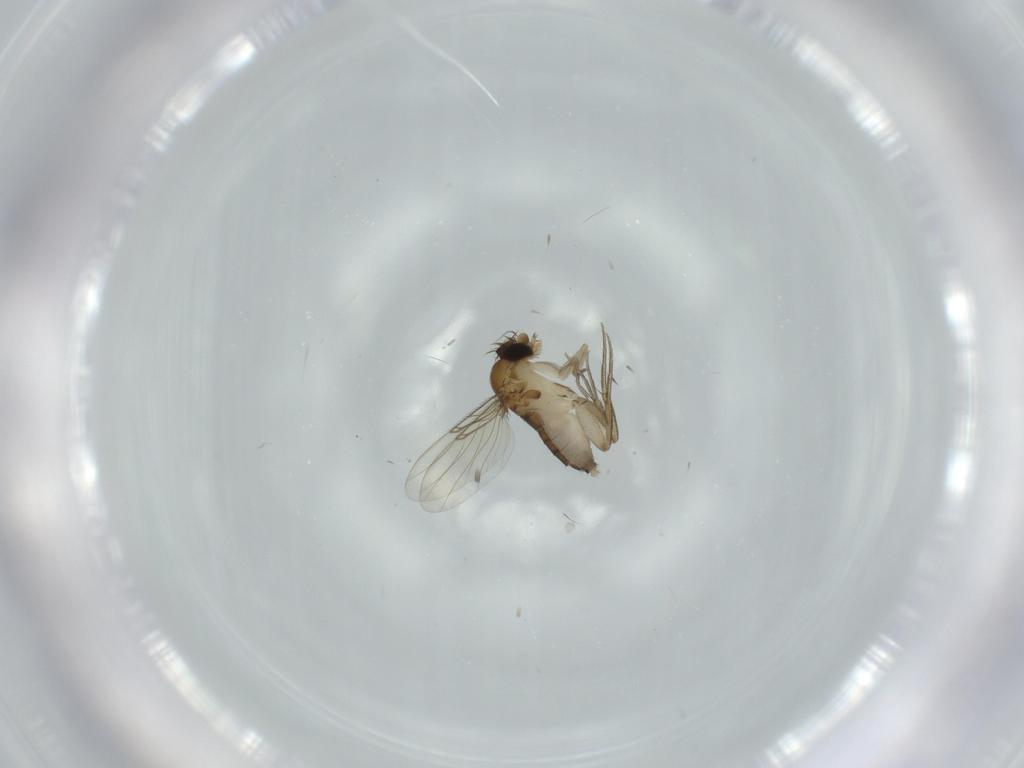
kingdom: Animalia
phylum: Arthropoda
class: Insecta
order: Diptera
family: Phoridae
